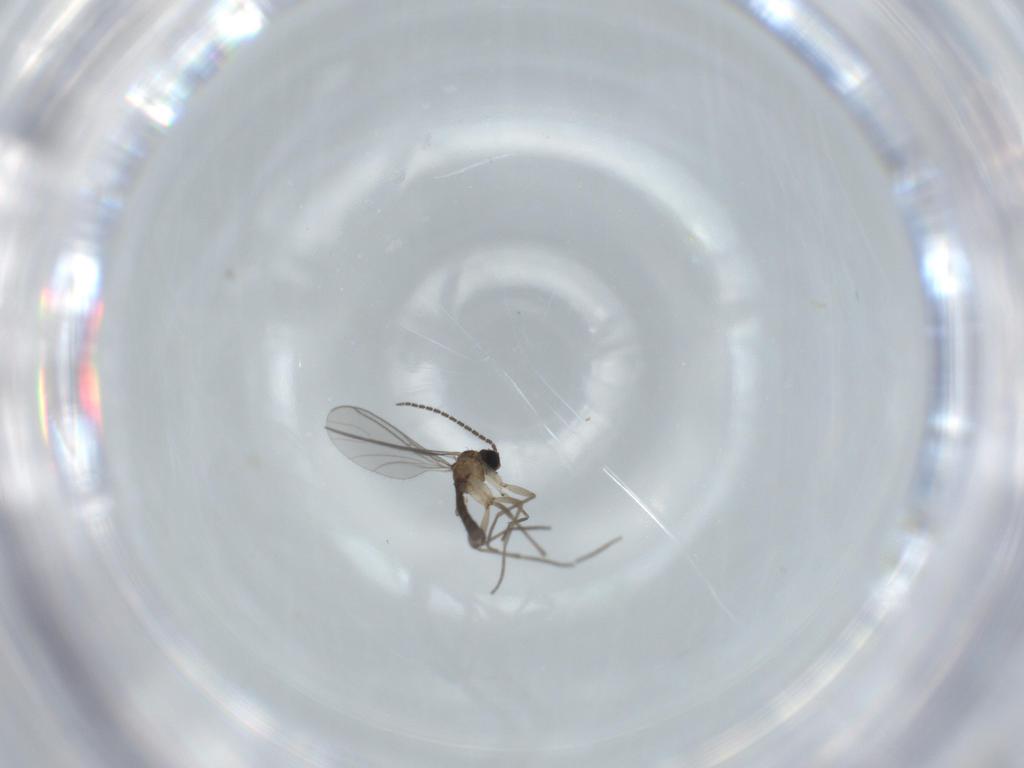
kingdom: Animalia
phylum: Arthropoda
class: Insecta
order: Diptera
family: Sciaridae
